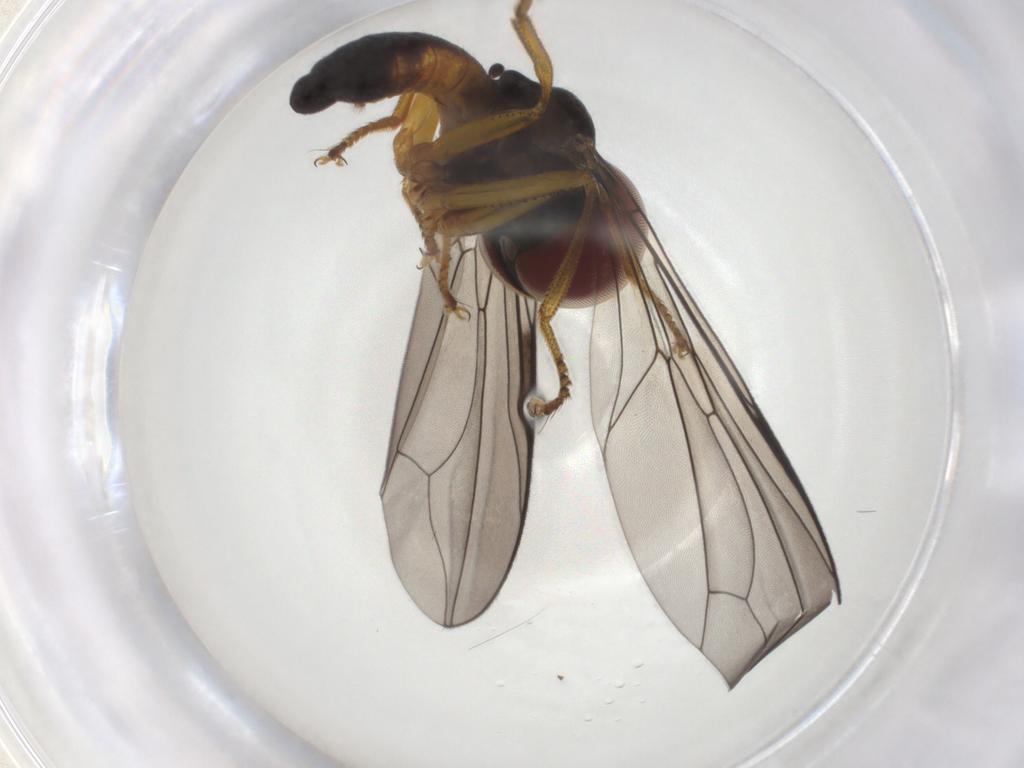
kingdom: Animalia
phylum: Arthropoda
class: Insecta
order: Diptera
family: Pipunculidae
